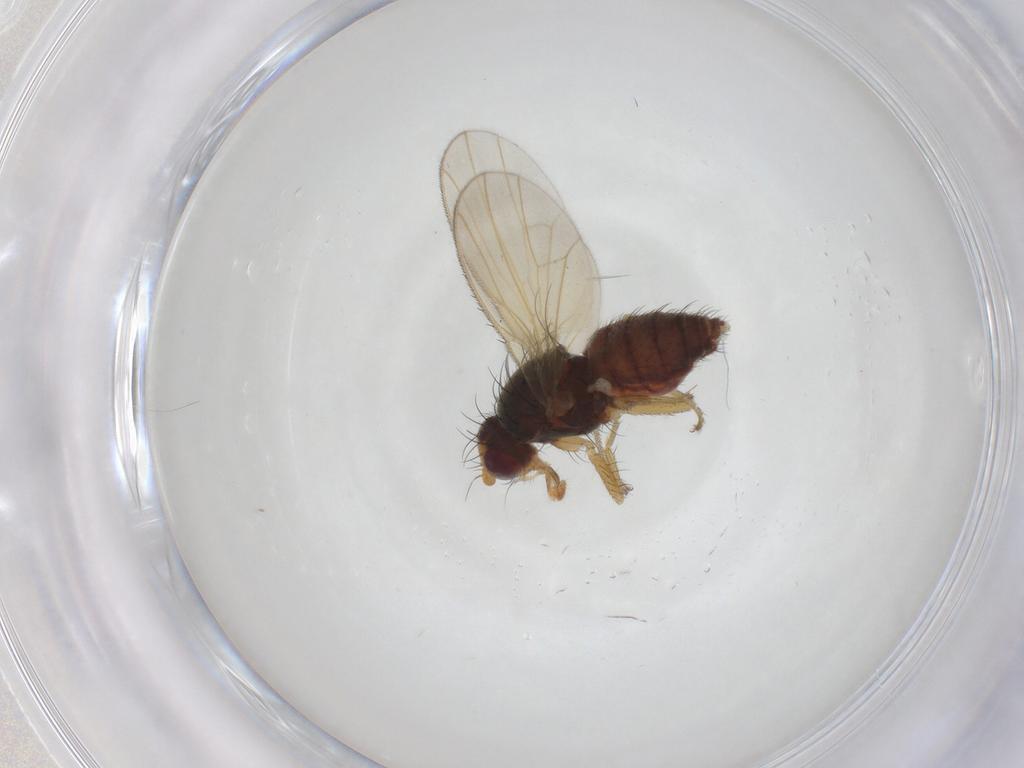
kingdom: Animalia
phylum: Arthropoda
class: Insecta
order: Diptera
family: Heleomyzidae
